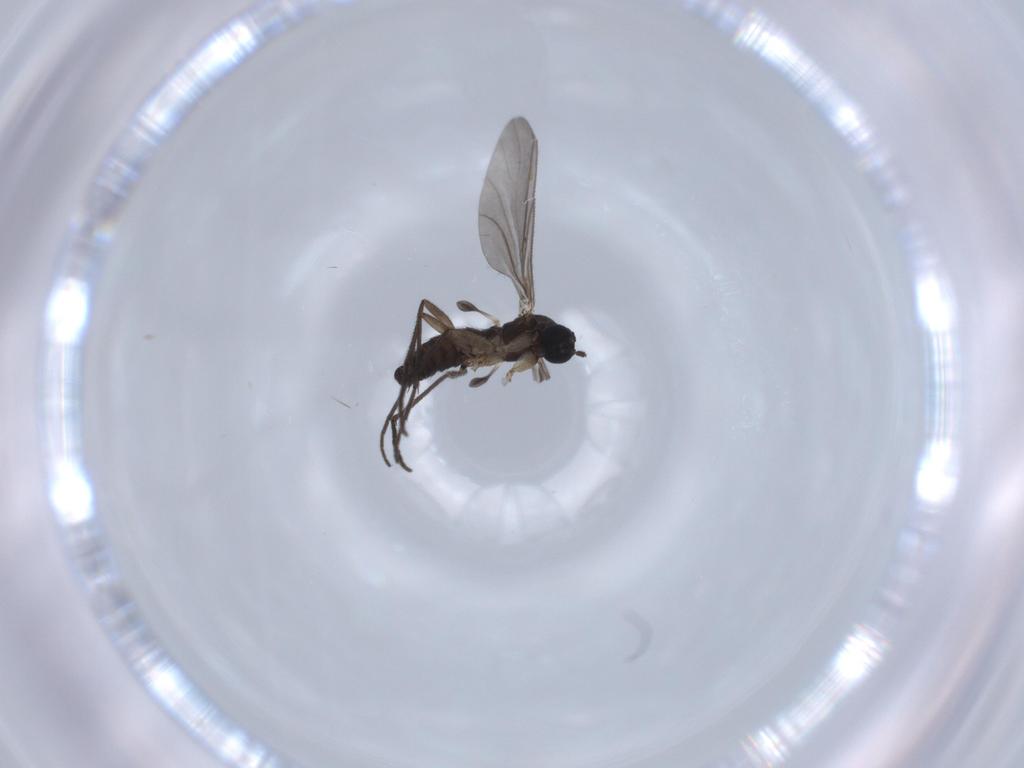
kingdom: Animalia
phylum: Arthropoda
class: Insecta
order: Diptera
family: Sciaridae
